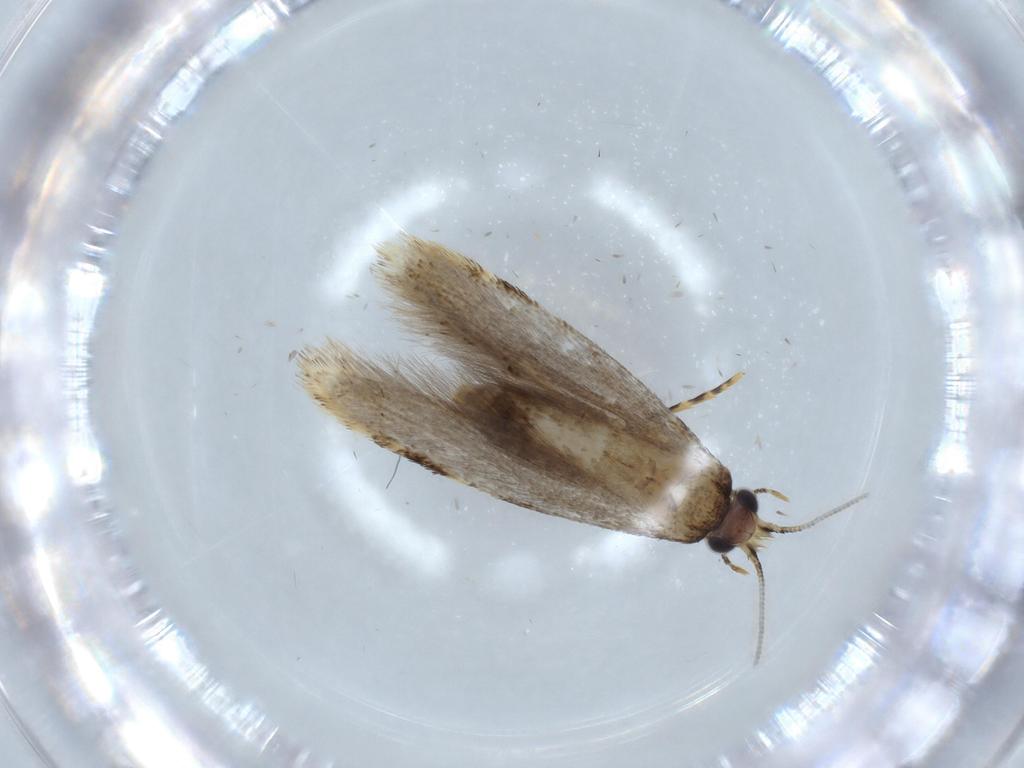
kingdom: Animalia
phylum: Arthropoda
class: Insecta
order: Lepidoptera
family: Tineidae
